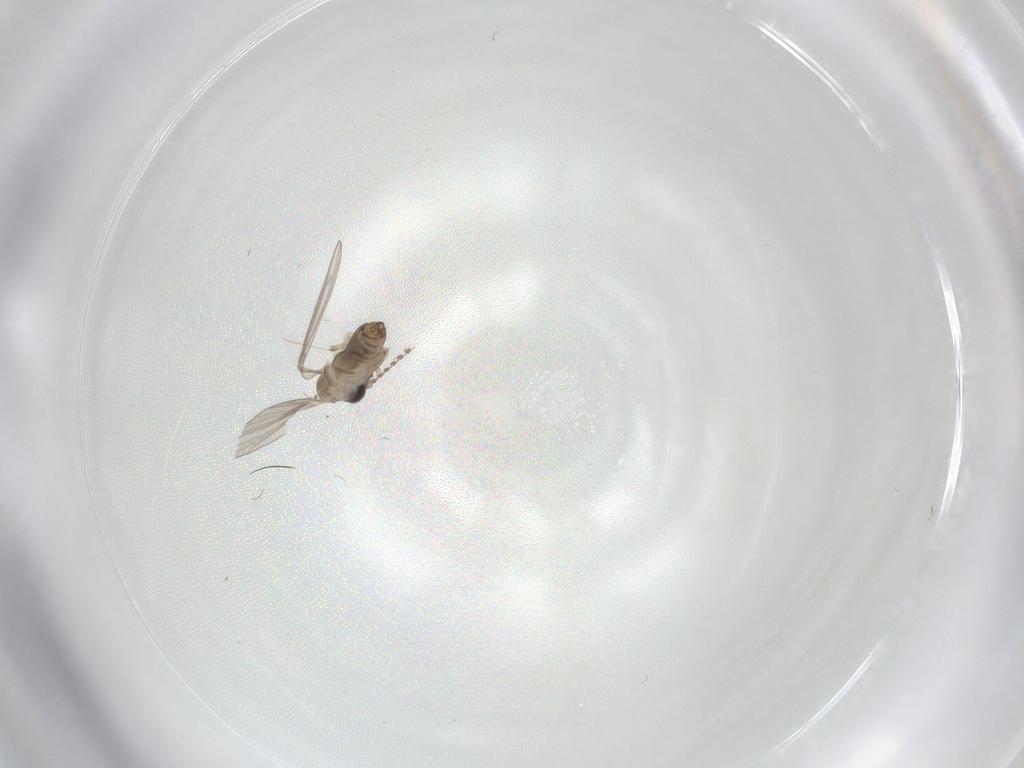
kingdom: Animalia
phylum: Arthropoda
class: Insecta
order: Diptera
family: Psychodidae
